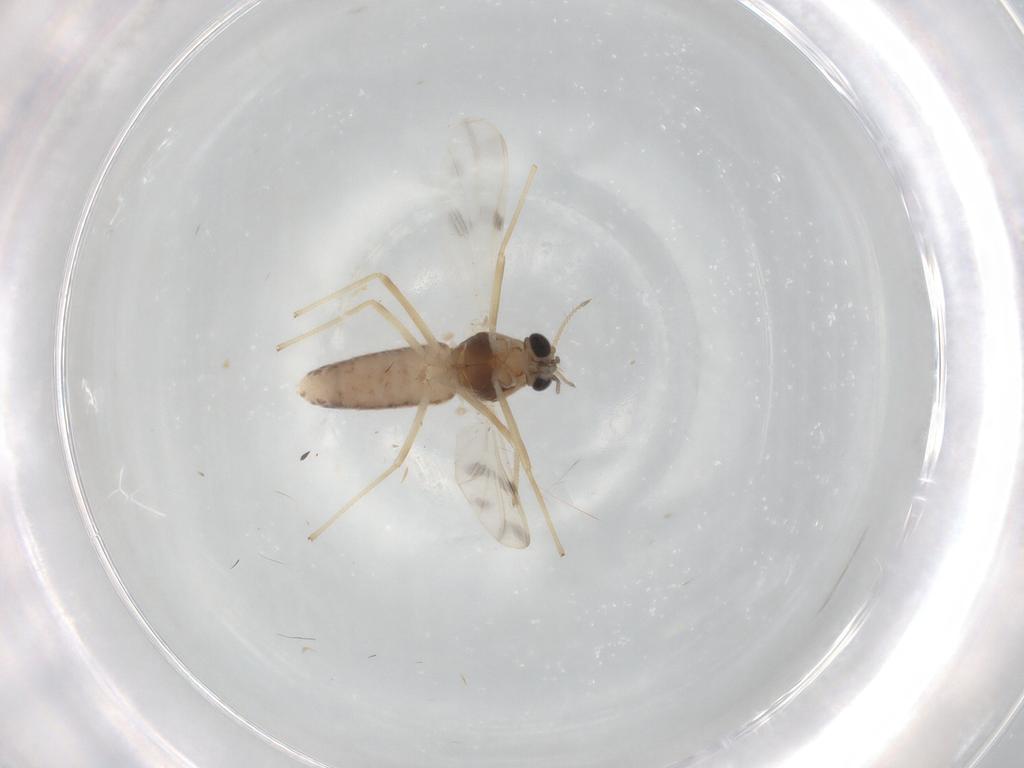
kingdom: Animalia
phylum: Arthropoda
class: Insecta
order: Diptera
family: Chironomidae
